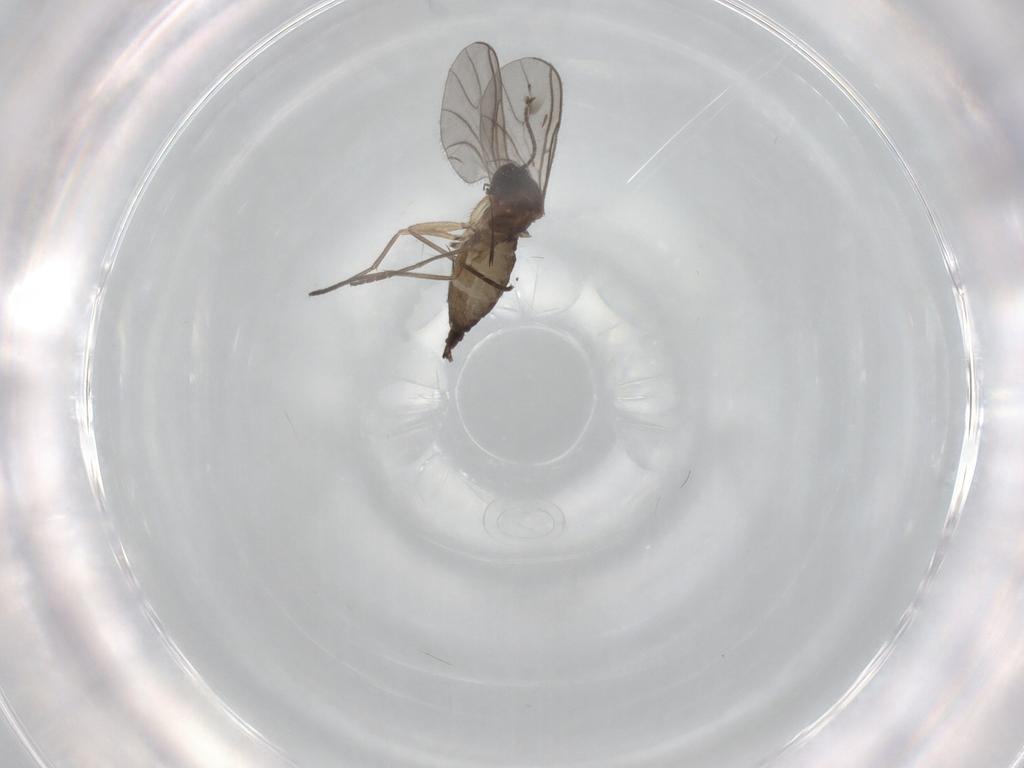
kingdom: Animalia
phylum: Arthropoda
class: Insecta
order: Diptera
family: Sciaridae
